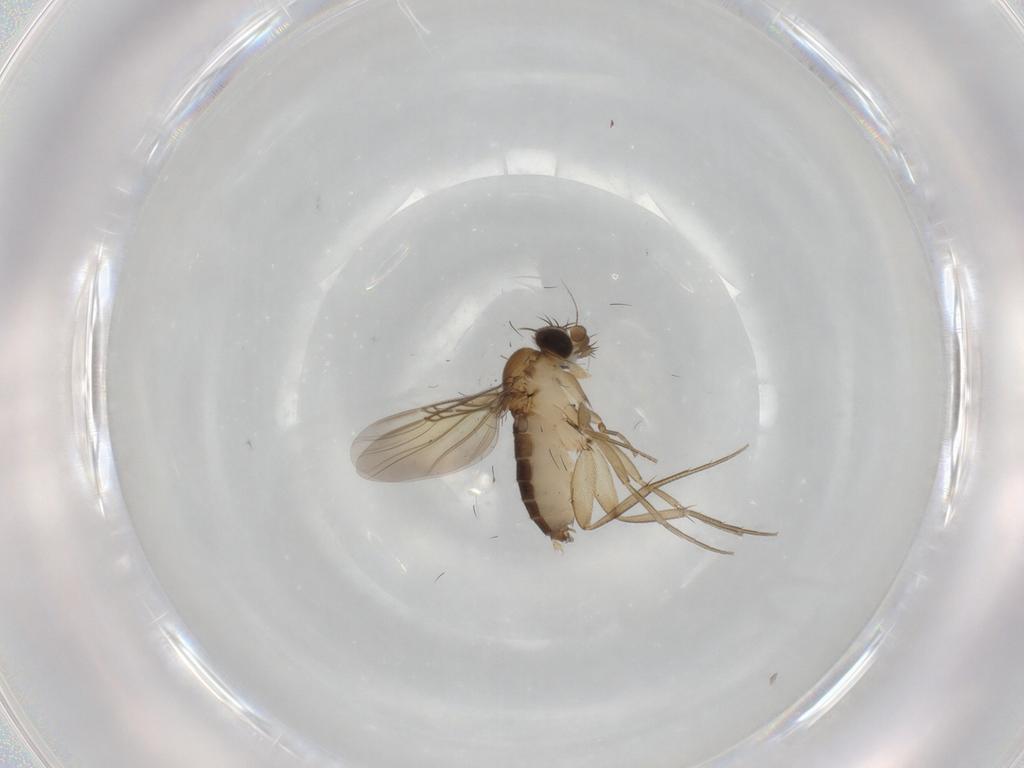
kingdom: Animalia
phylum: Arthropoda
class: Insecta
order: Diptera
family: Phoridae
